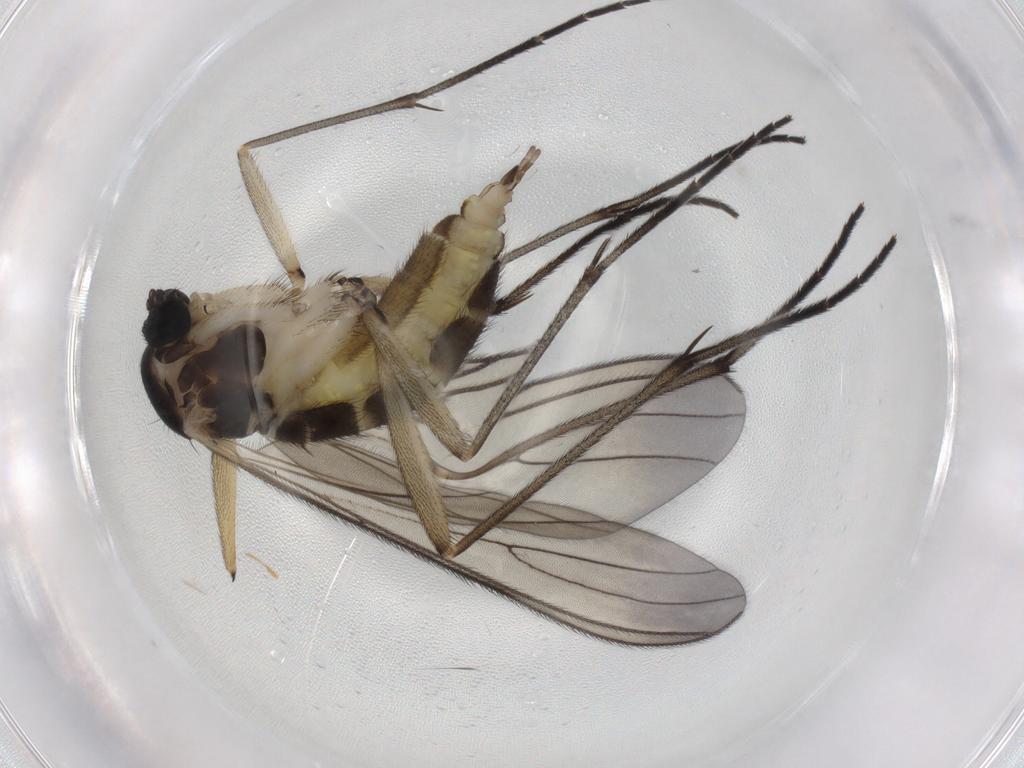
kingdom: Animalia
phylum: Arthropoda
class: Insecta
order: Diptera
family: Sciaridae
